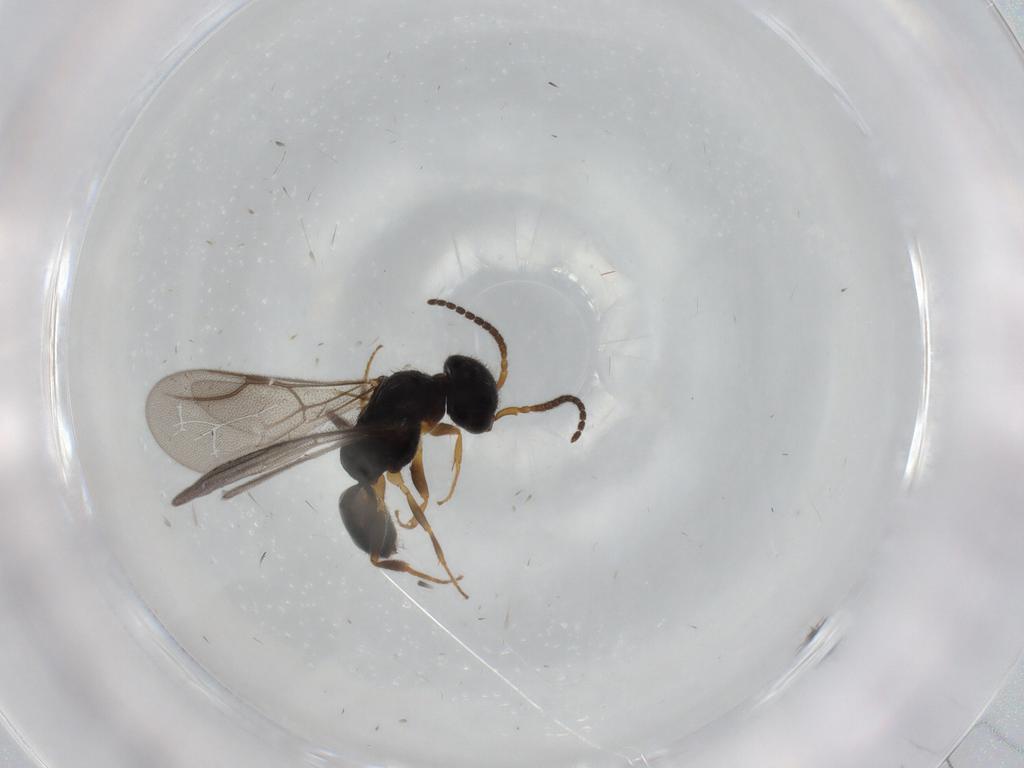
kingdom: Animalia
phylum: Arthropoda
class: Insecta
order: Hymenoptera
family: Bethylidae
